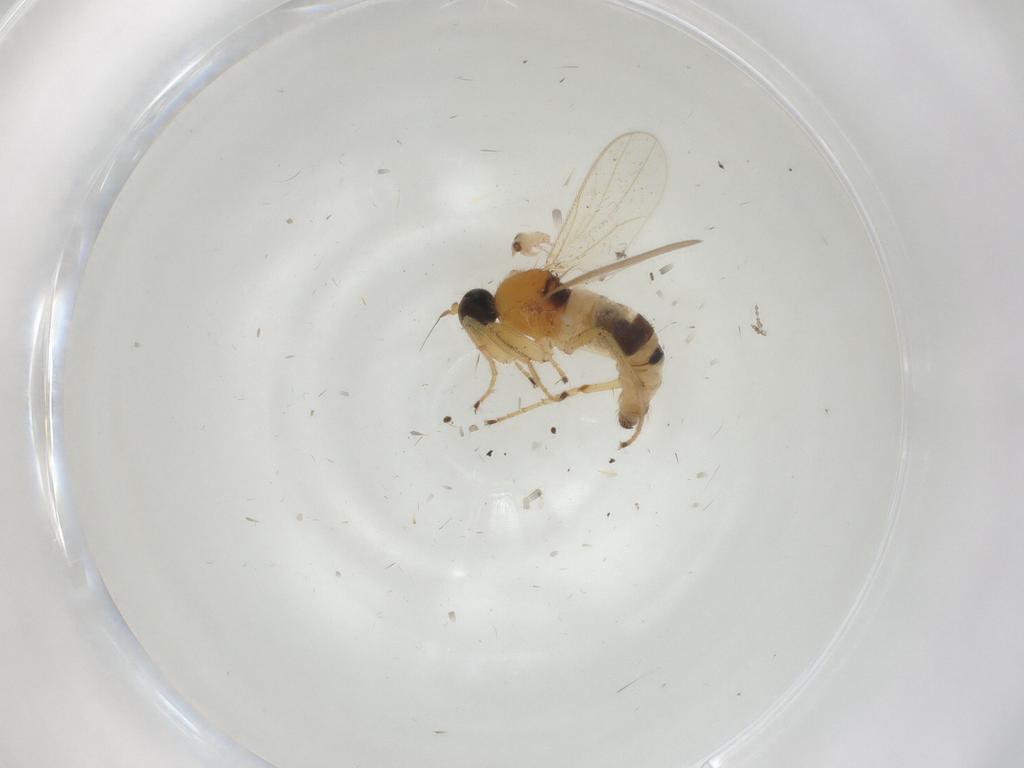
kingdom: Animalia
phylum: Arthropoda
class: Insecta
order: Diptera
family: Hybotidae
